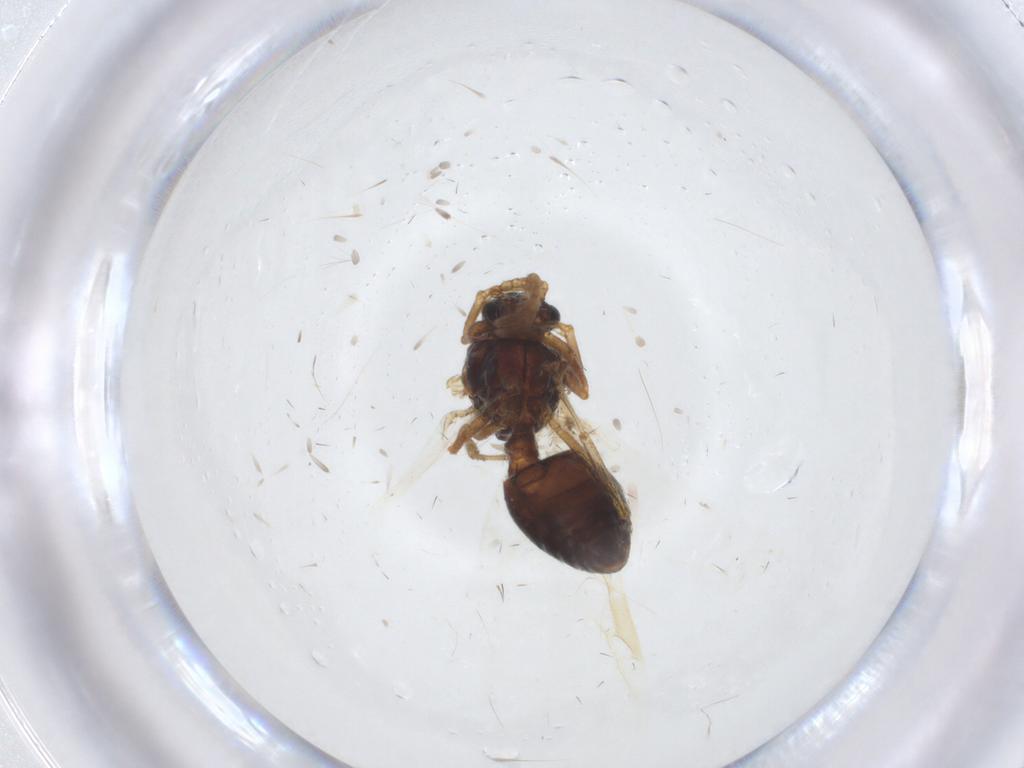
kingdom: Animalia
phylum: Arthropoda
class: Insecta
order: Hymenoptera
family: Formicidae
